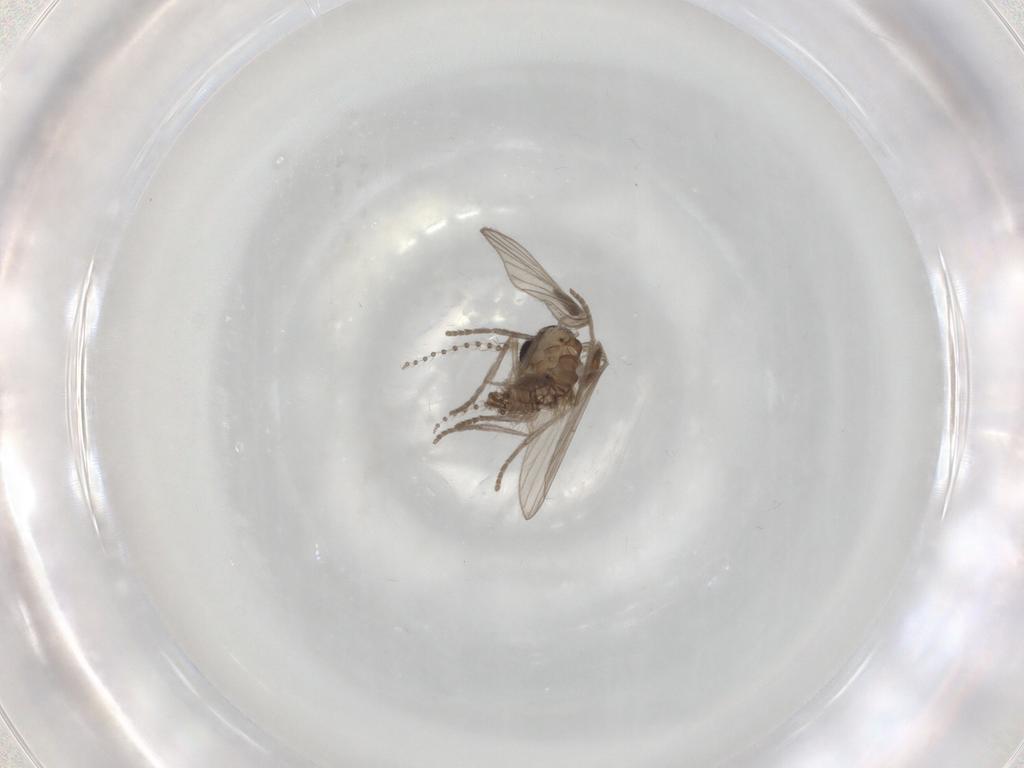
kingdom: Animalia
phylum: Arthropoda
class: Insecta
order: Diptera
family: Psychodidae
